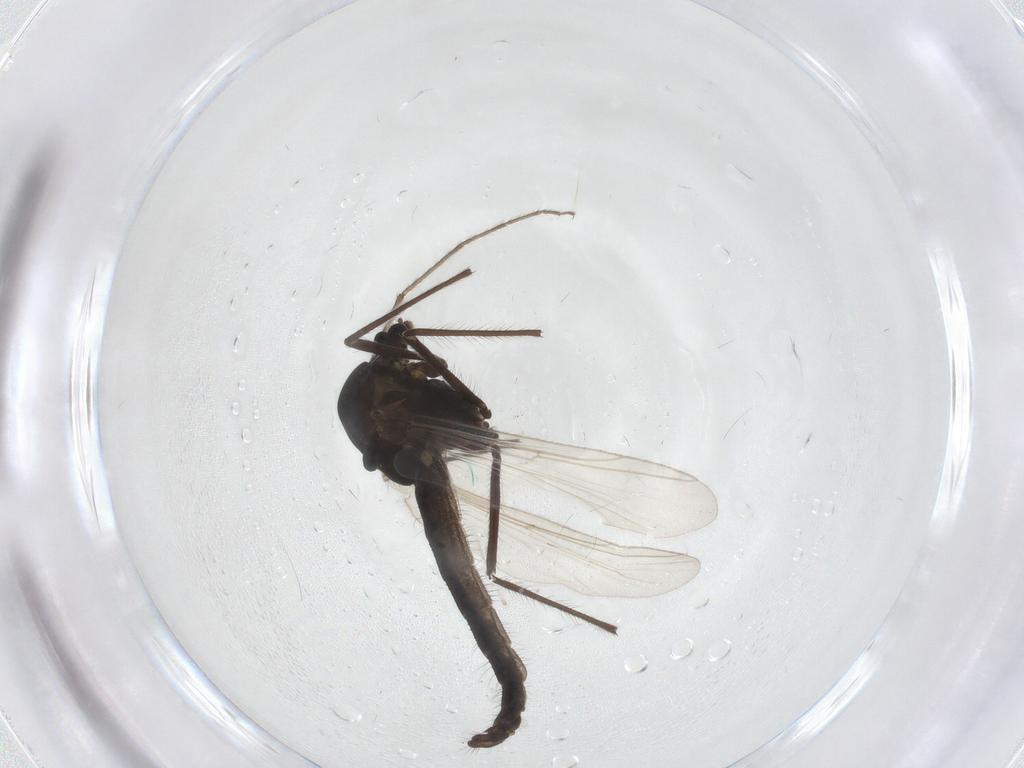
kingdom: Animalia
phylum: Arthropoda
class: Insecta
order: Diptera
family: Chironomidae
